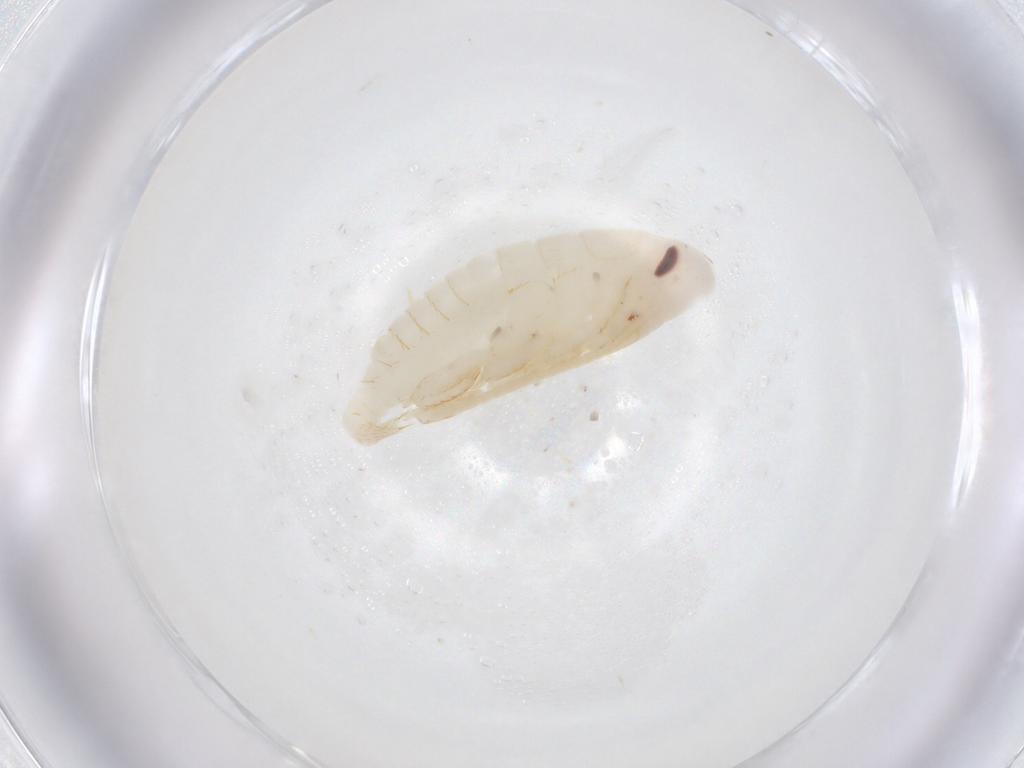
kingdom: Animalia
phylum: Arthropoda
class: Insecta
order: Blattodea
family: Ectobiidae
